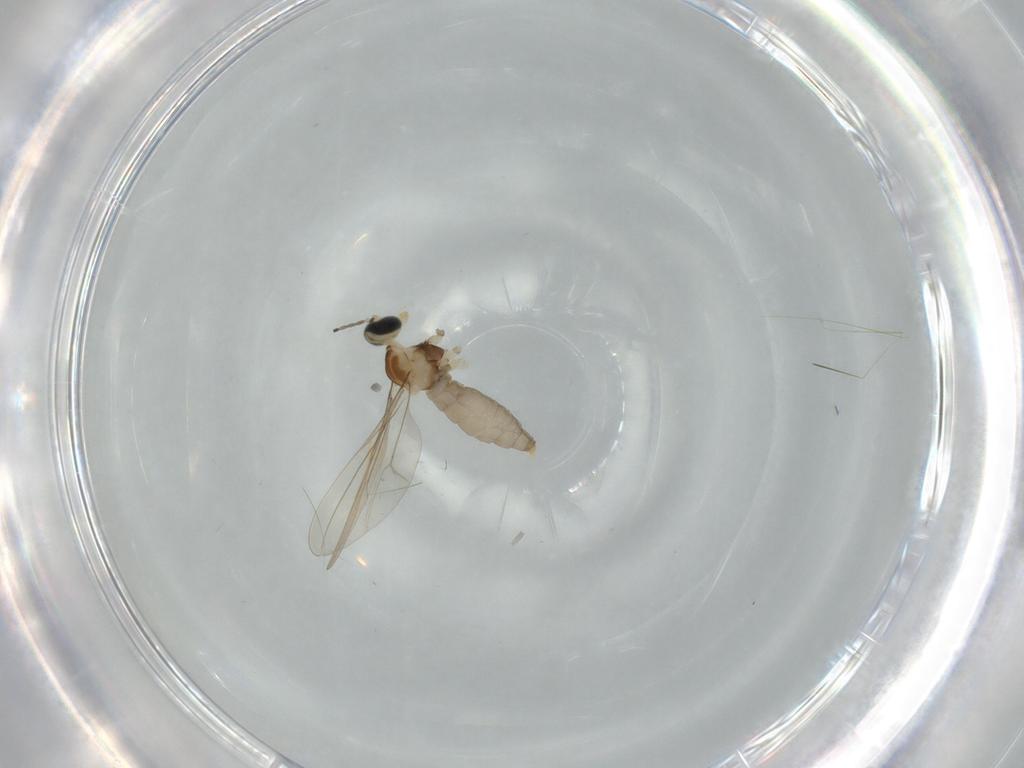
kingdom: Animalia
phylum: Arthropoda
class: Insecta
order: Diptera
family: Cecidomyiidae
